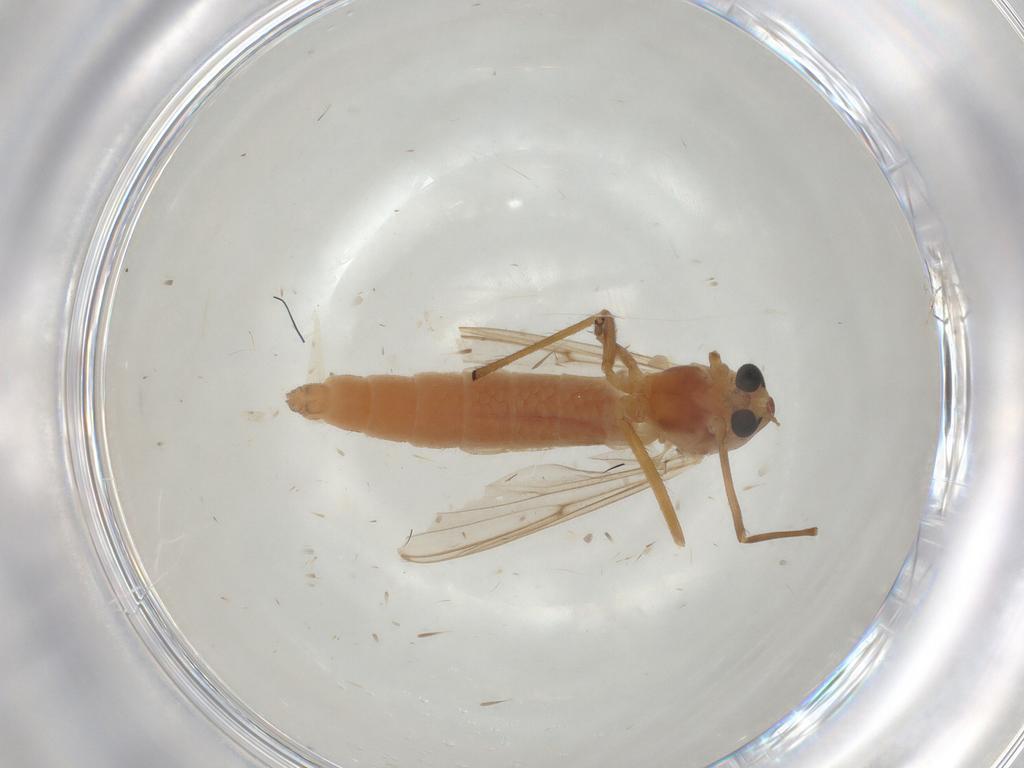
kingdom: Animalia
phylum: Arthropoda
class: Insecta
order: Diptera
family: Chironomidae
